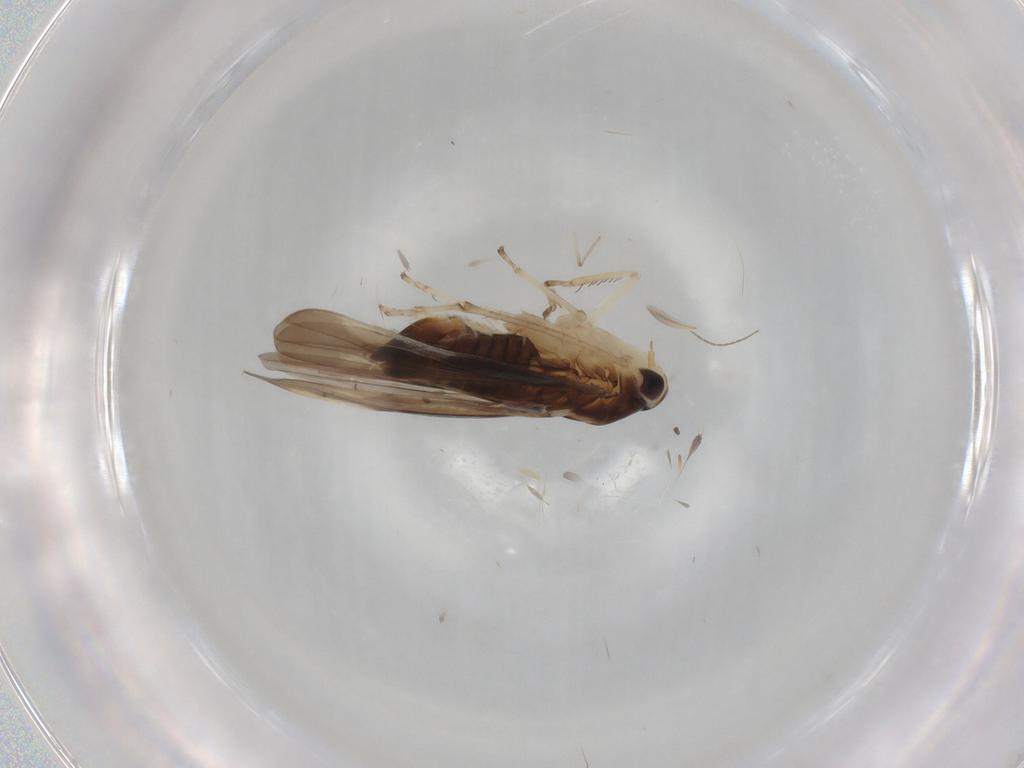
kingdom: Animalia
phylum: Arthropoda
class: Insecta
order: Hemiptera
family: Cicadellidae
